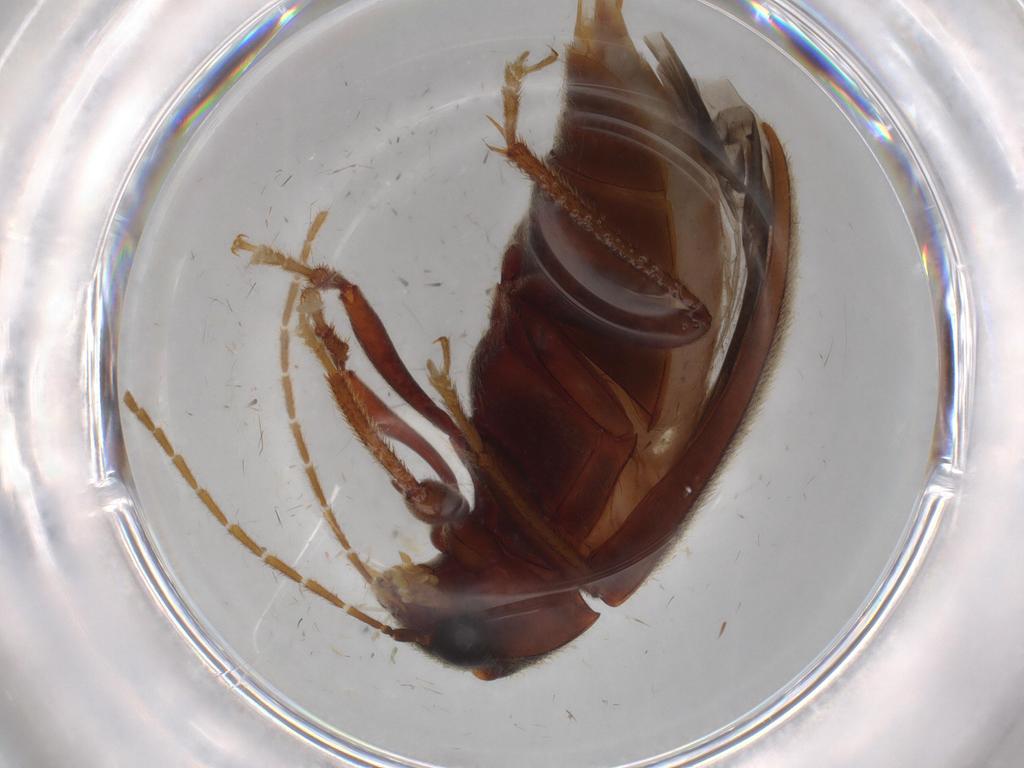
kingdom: Animalia
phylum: Arthropoda
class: Insecta
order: Coleoptera
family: Ptilodactylidae
